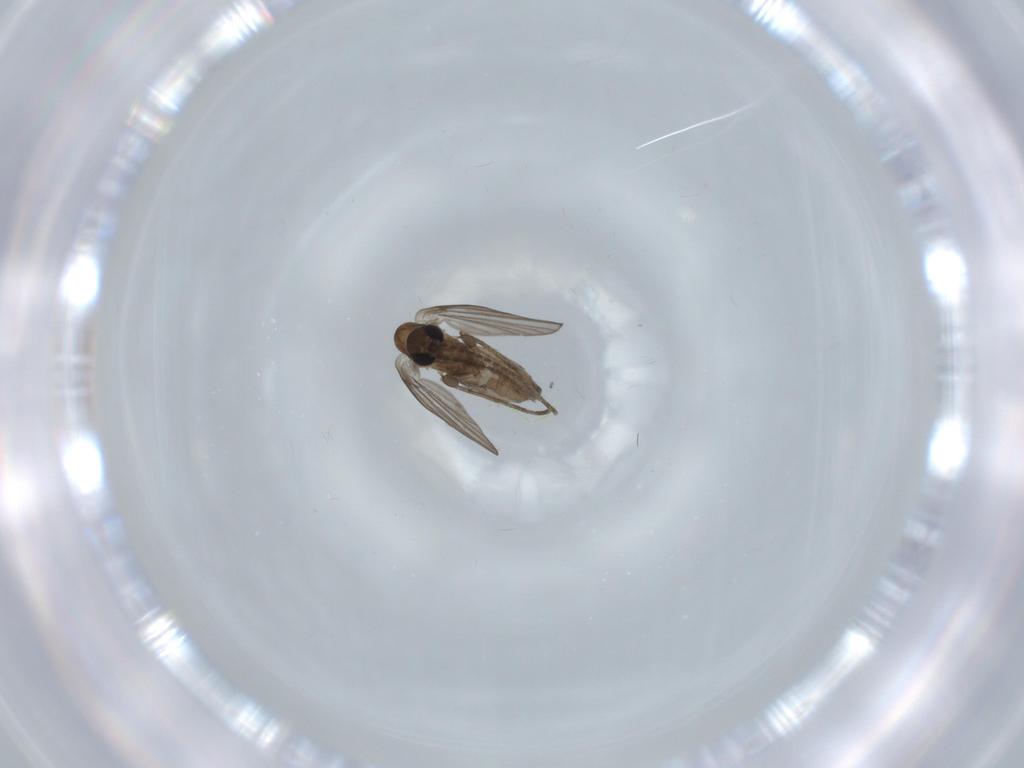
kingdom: Animalia
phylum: Arthropoda
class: Insecta
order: Diptera
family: Psychodidae
